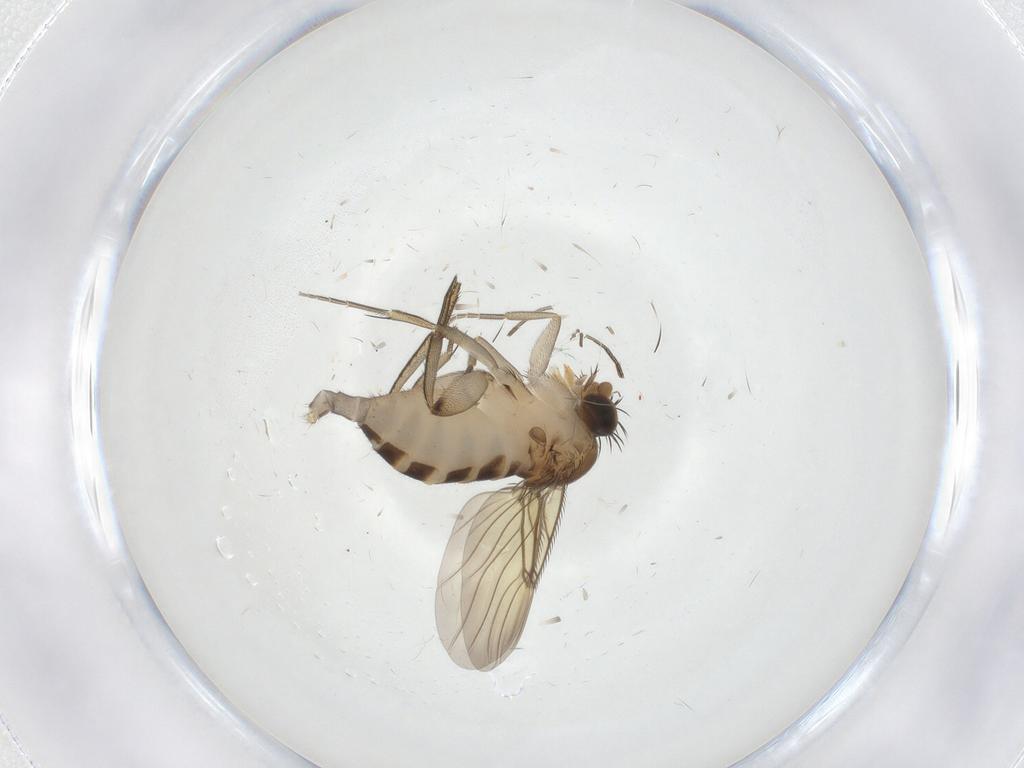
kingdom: Animalia
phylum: Arthropoda
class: Insecta
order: Diptera
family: Phoridae
